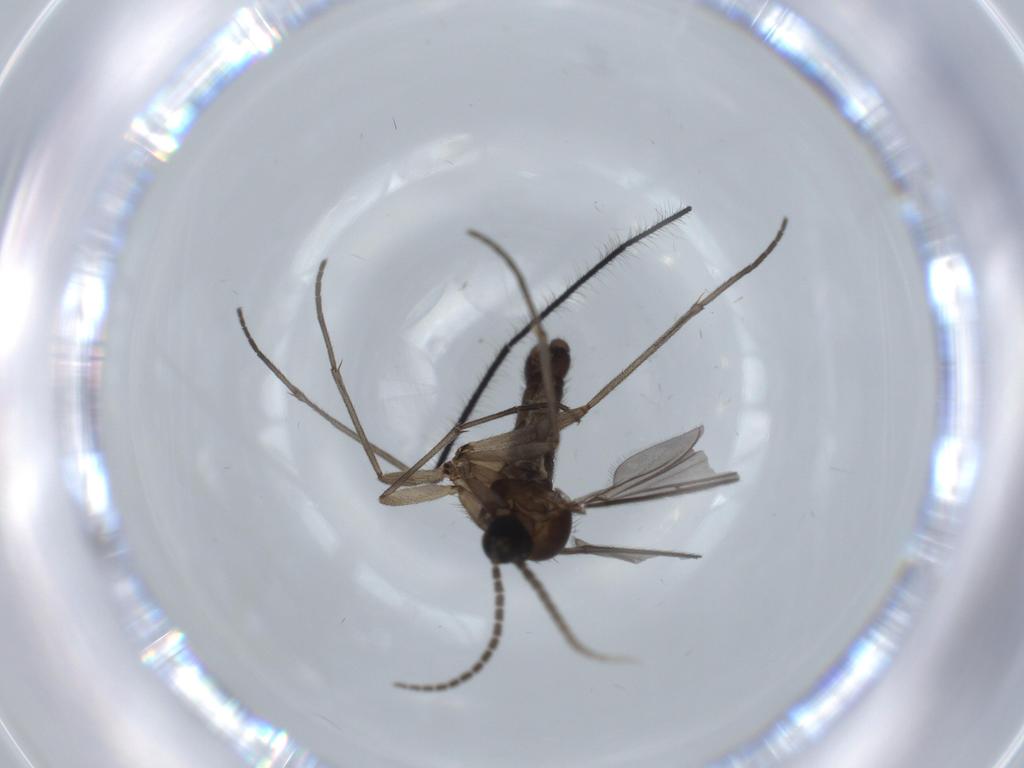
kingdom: Animalia
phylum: Arthropoda
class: Insecta
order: Diptera
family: Sciaridae
